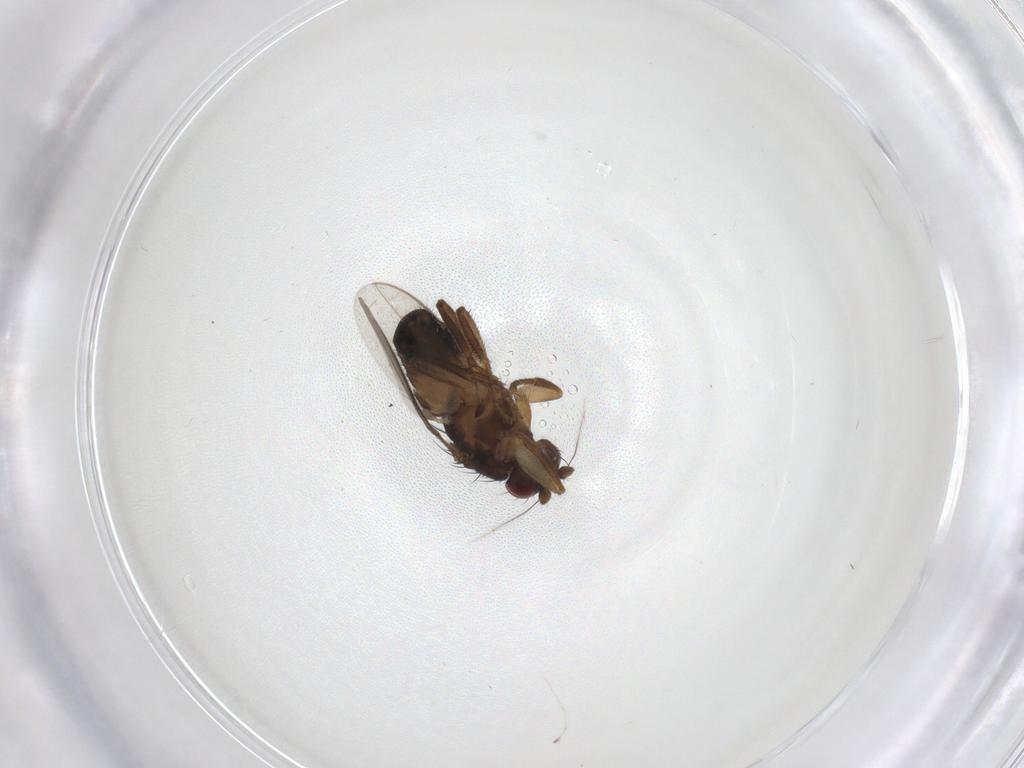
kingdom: Animalia
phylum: Arthropoda
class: Insecta
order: Diptera
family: Sphaeroceridae
